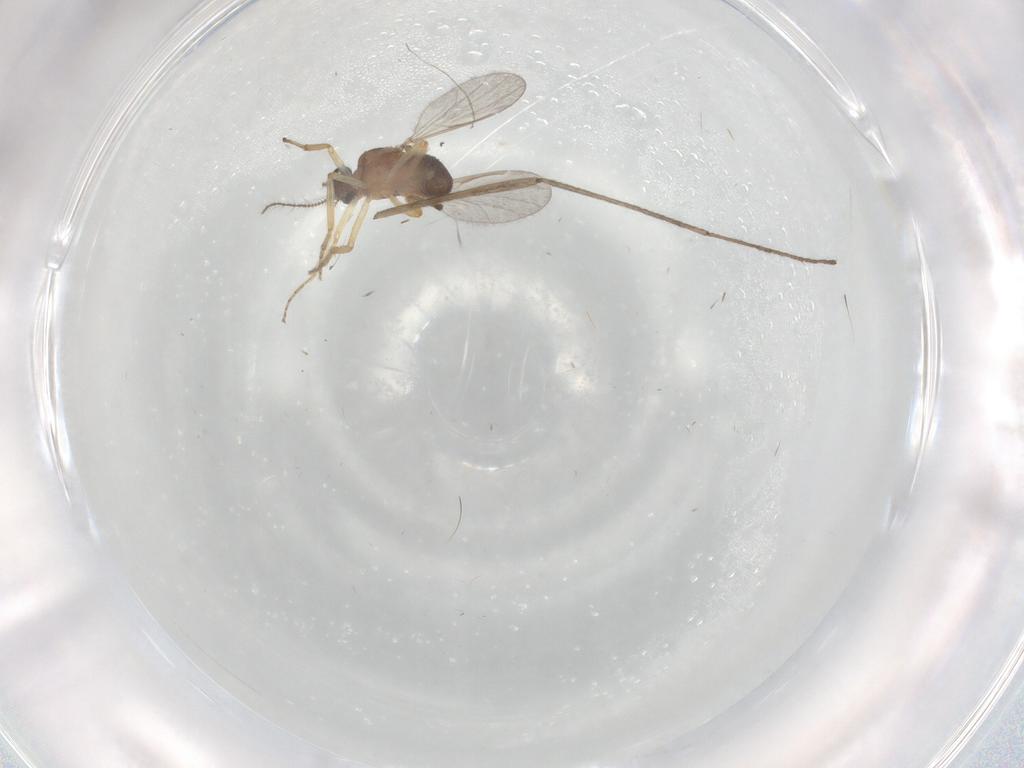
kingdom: Animalia
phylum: Arthropoda
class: Insecta
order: Diptera
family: Ceratopogonidae
